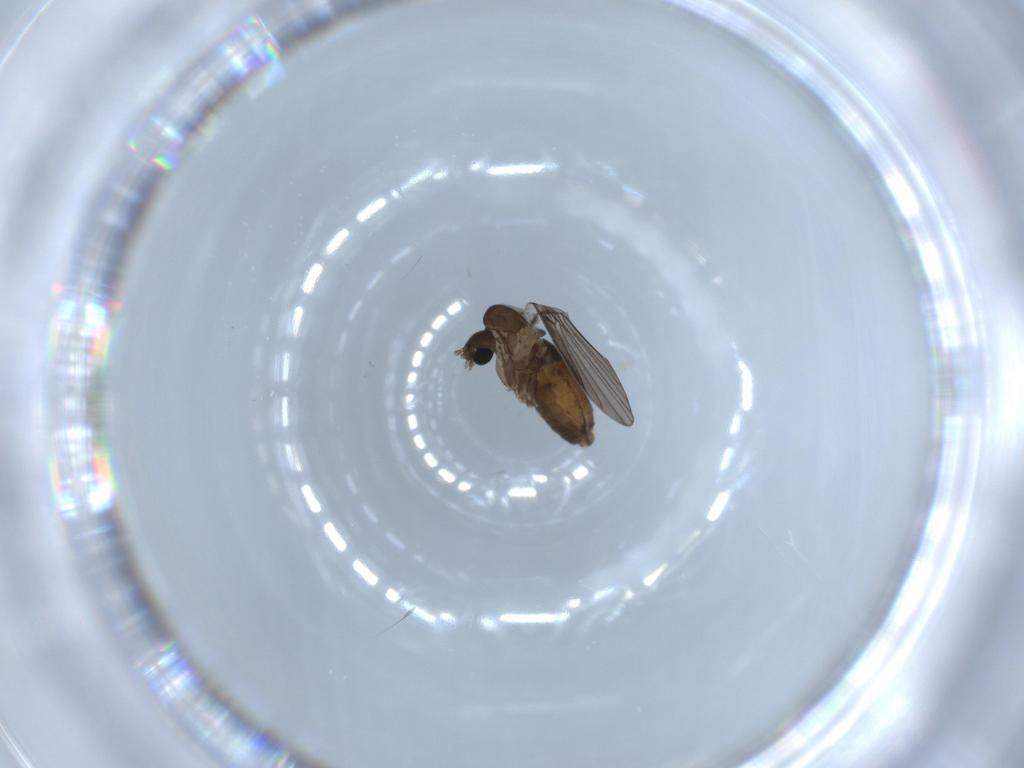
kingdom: Animalia
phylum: Arthropoda
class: Insecta
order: Diptera
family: Psychodidae
